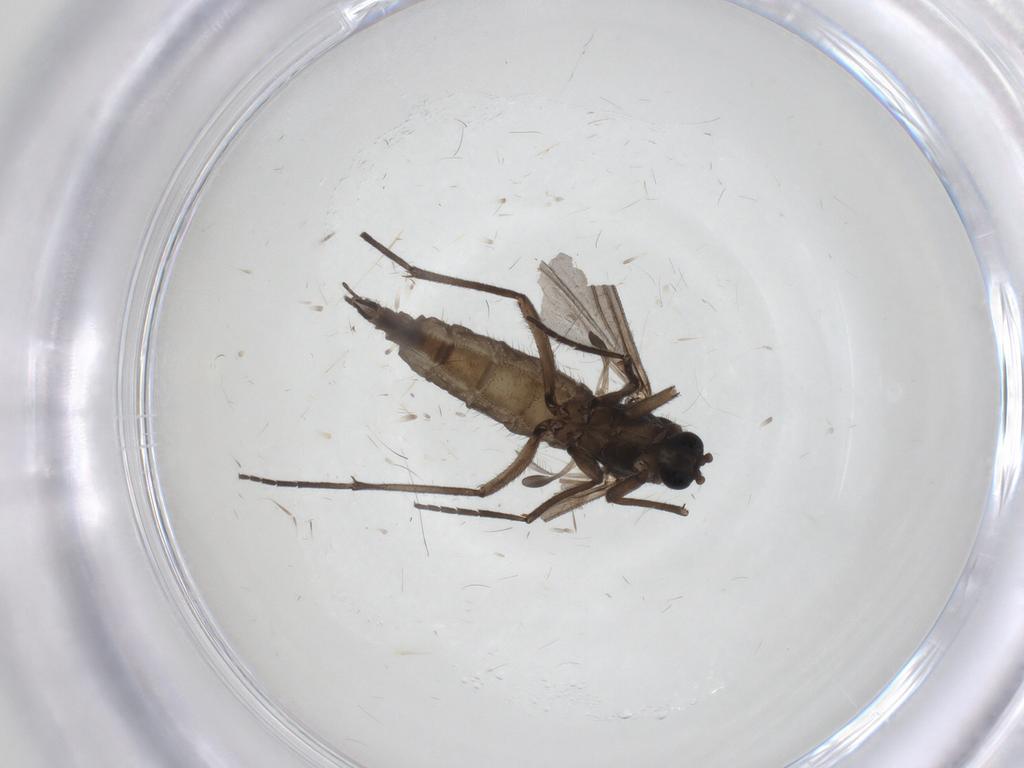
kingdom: Animalia
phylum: Arthropoda
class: Insecta
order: Diptera
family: Sciaridae
